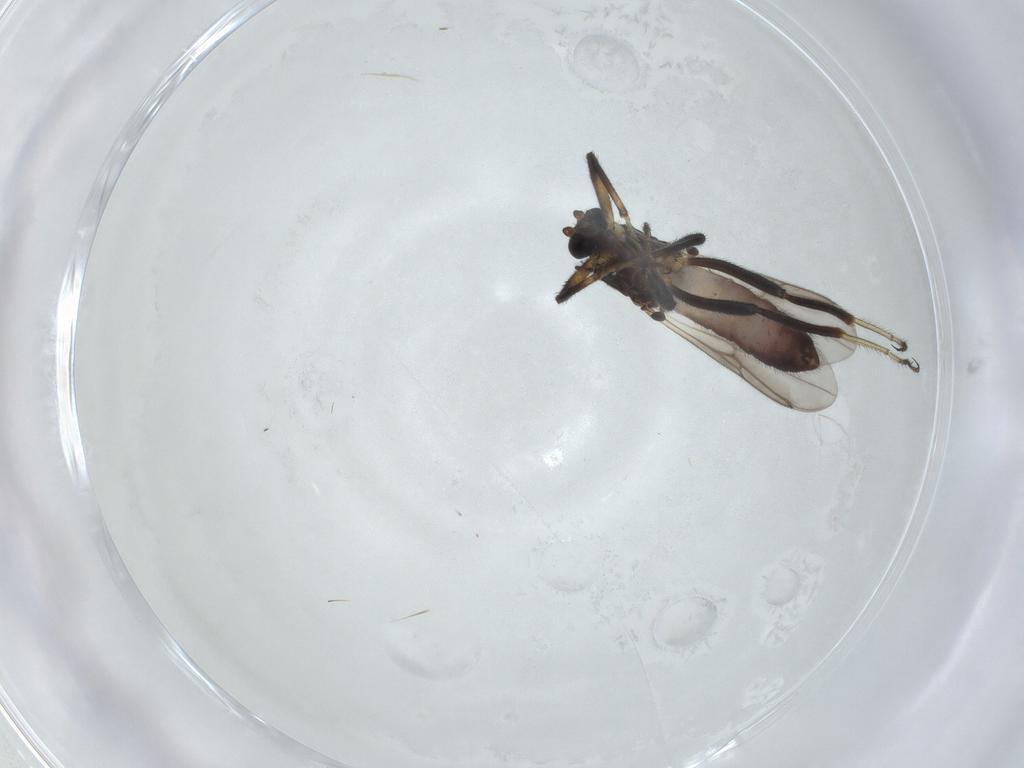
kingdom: Animalia
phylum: Arthropoda
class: Insecta
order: Diptera
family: Ceratopogonidae
